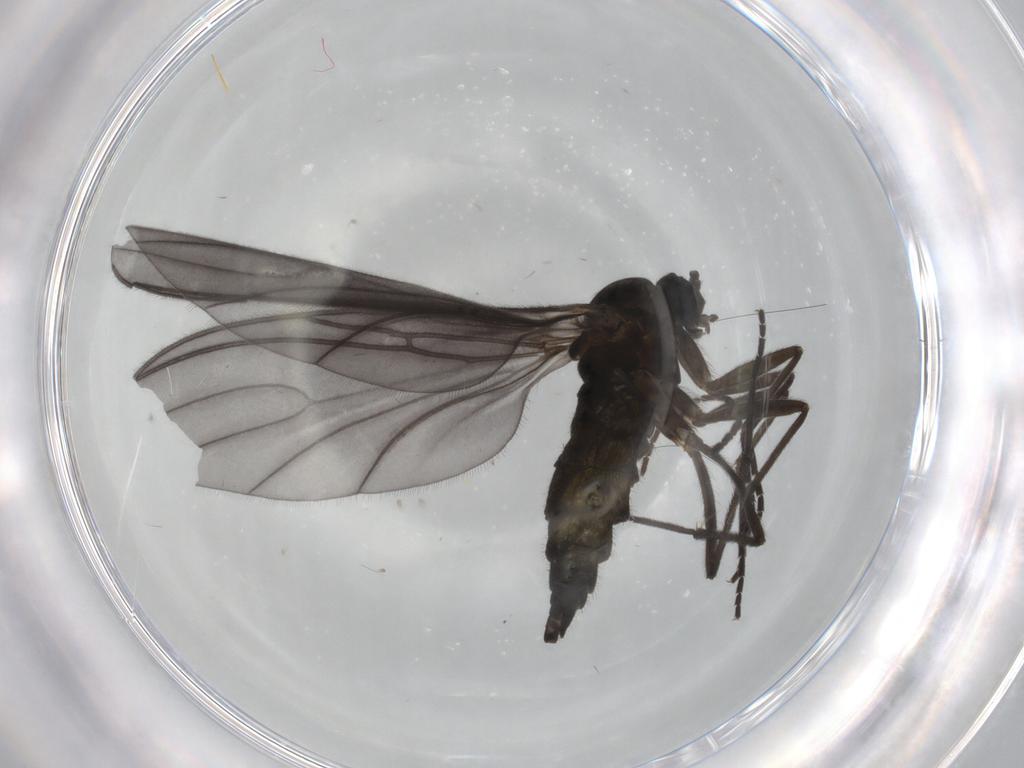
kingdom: Animalia
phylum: Arthropoda
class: Insecta
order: Diptera
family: Sciaridae
